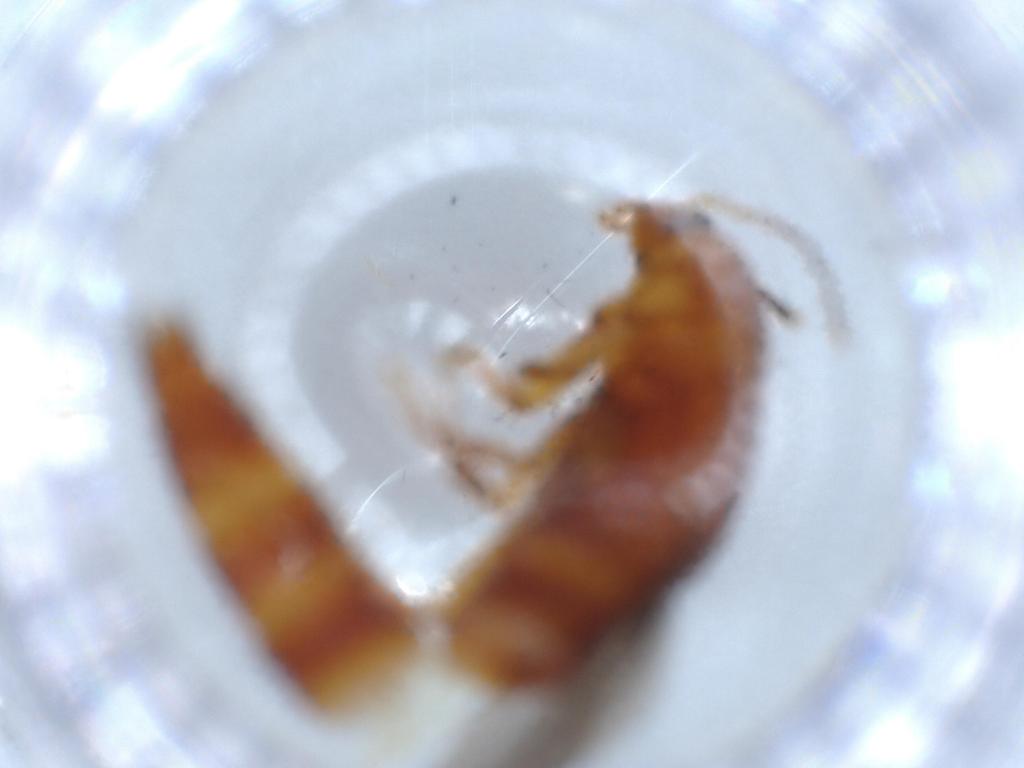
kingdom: Animalia
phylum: Arthropoda
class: Insecta
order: Coleoptera
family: Staphylinidae
